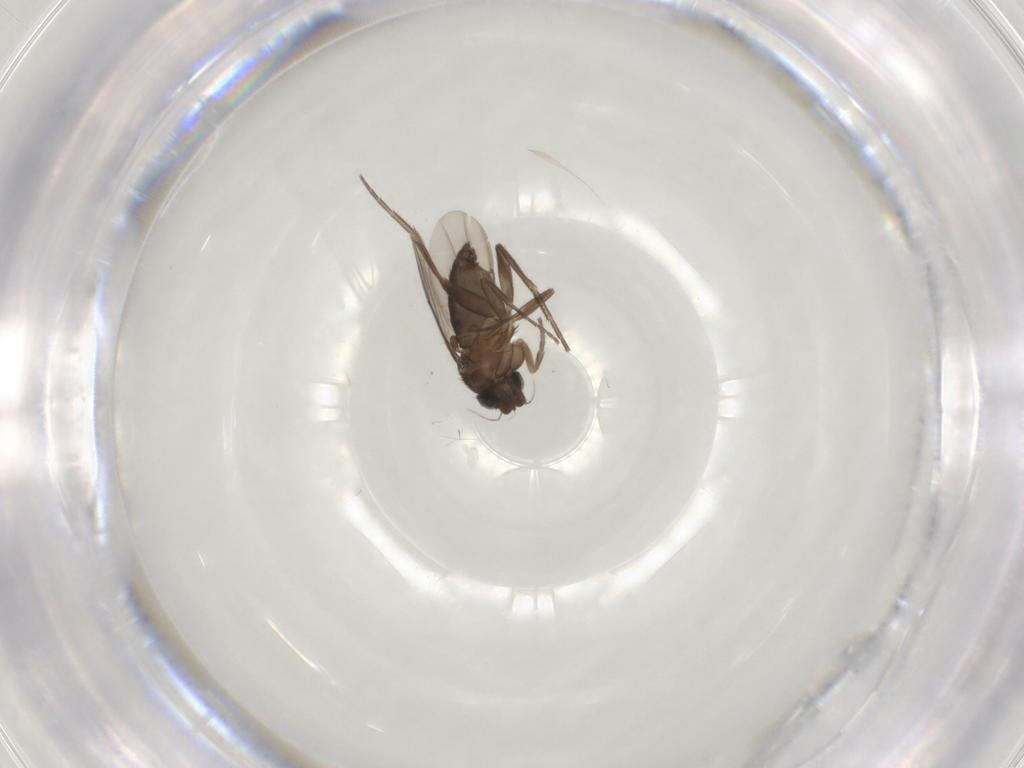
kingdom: Animalia
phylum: Arthropoda
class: Insecta
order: Diptera
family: Phoridae
